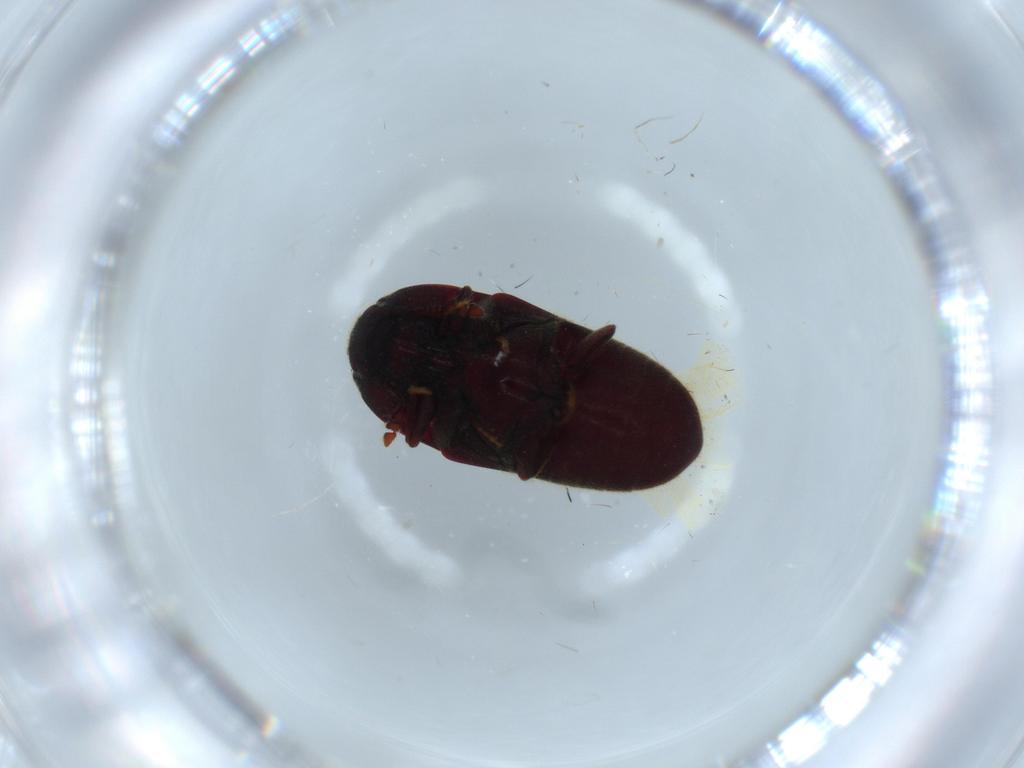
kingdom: Animalia
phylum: Arthropoda
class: Insecta
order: Coleoptera
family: Throscidae
